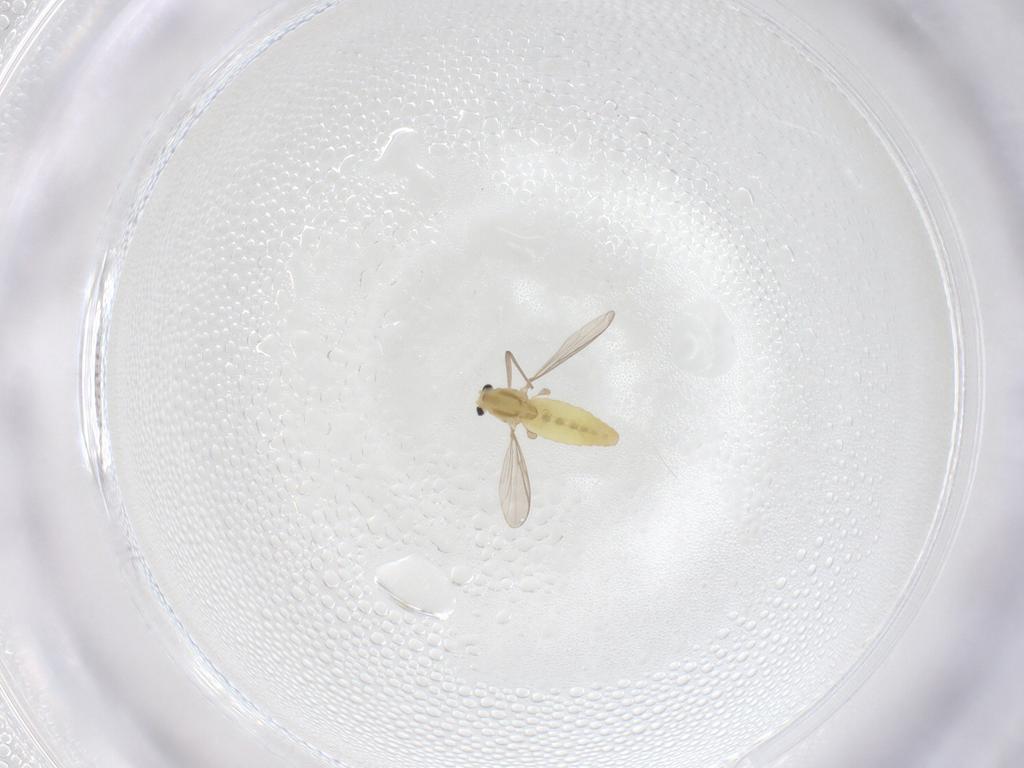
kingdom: Animalia
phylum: Arthropoda
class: Insecta
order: Diptera
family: Chironomidae
